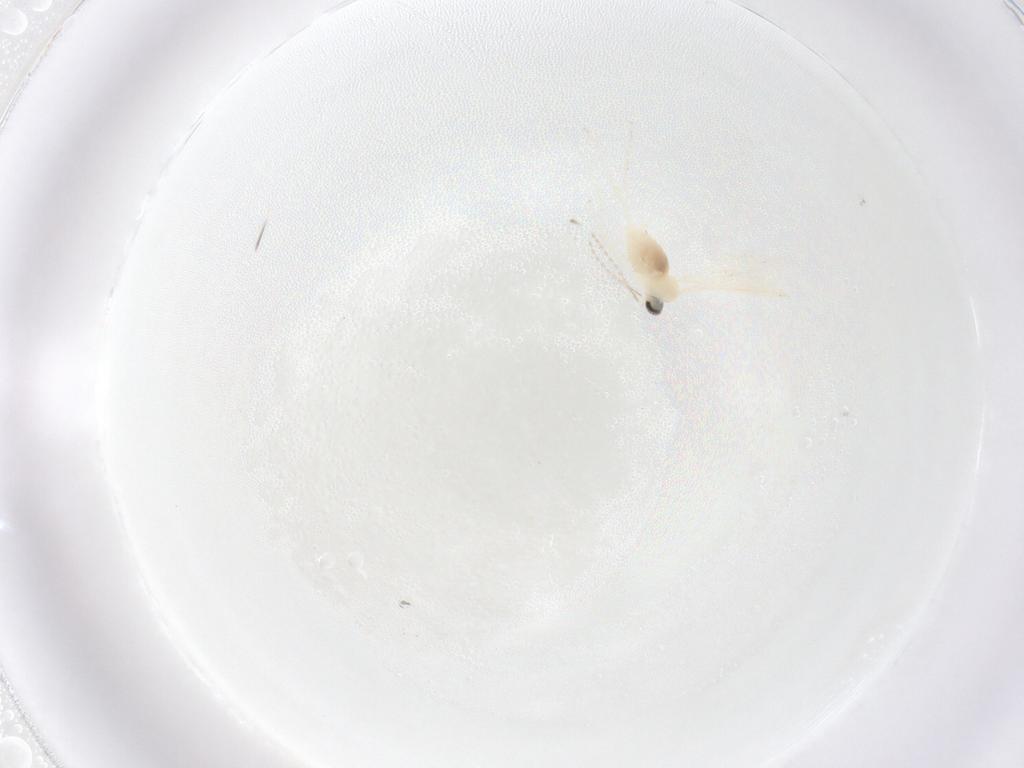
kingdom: Animalia
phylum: Arthropoda
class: Insecta
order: Diptera
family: Cecidomyiidae
